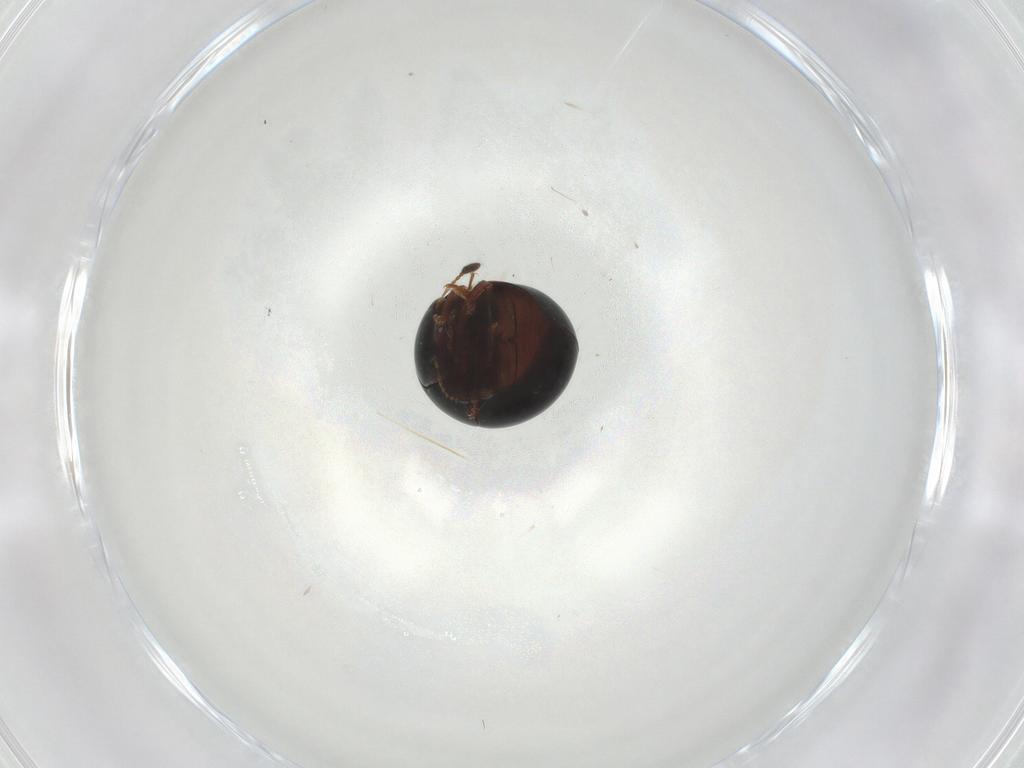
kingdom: Animalia
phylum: Arthropoda
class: Insecta
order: Coleoptera
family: Leiodidae
